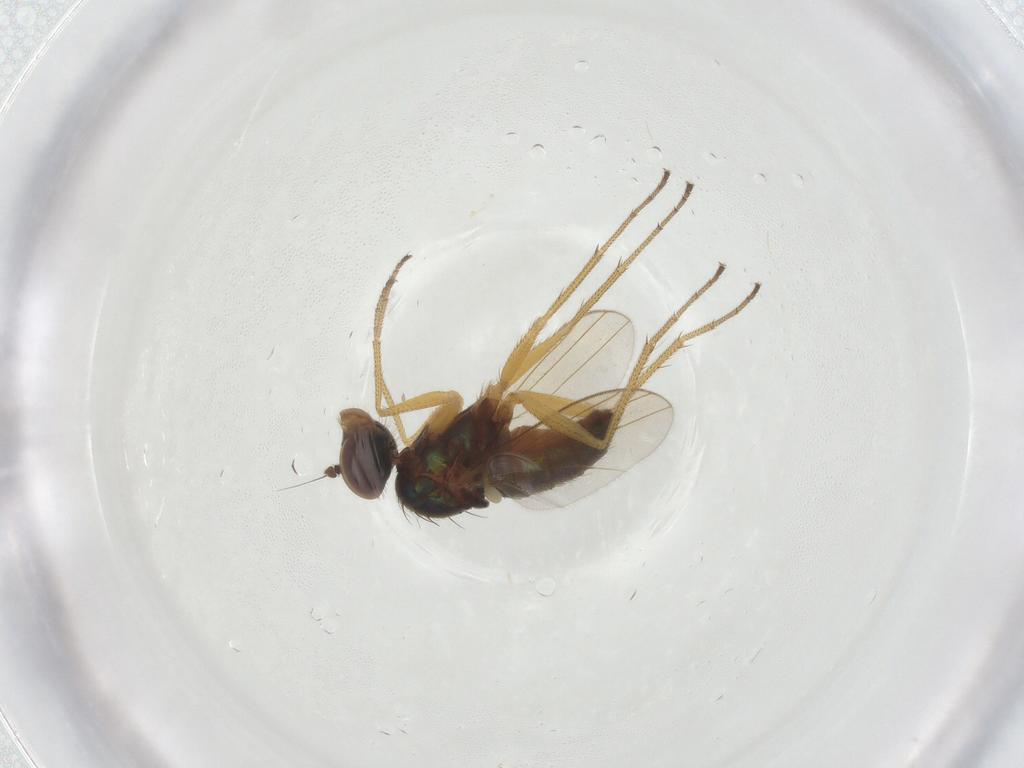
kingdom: Animalia
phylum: Arthropoda
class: Insecta
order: Diptera
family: Dolichopodidae
